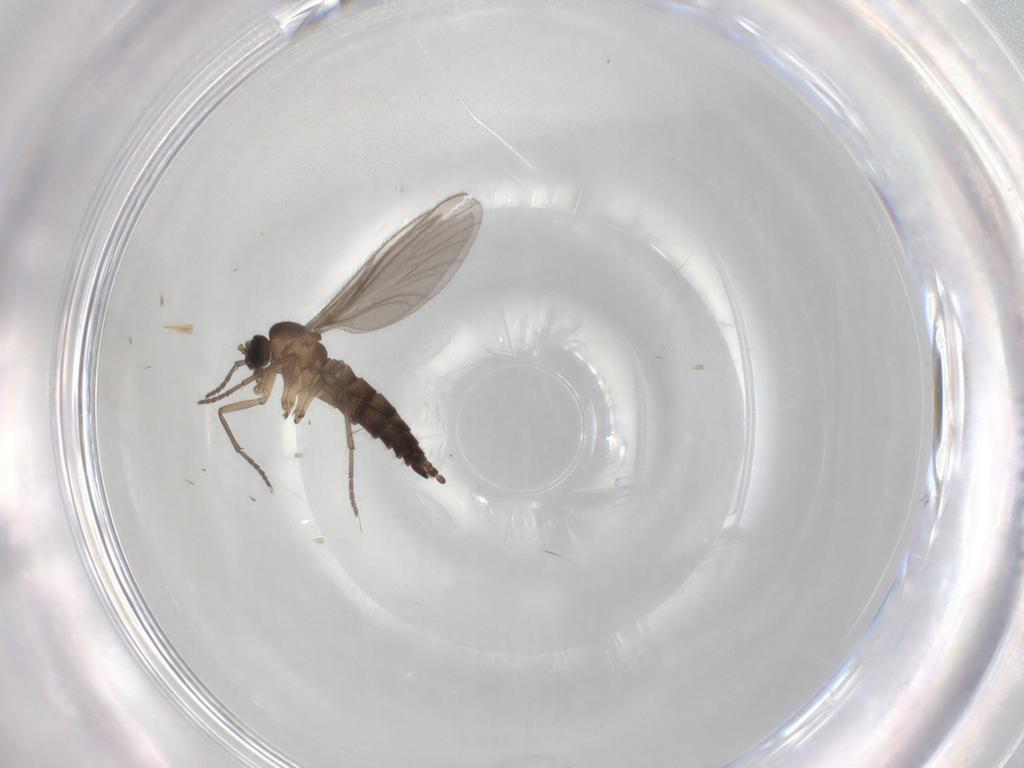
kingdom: Animalia
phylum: Arthropoda
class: Insecta
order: Diptera
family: Sciaridae
